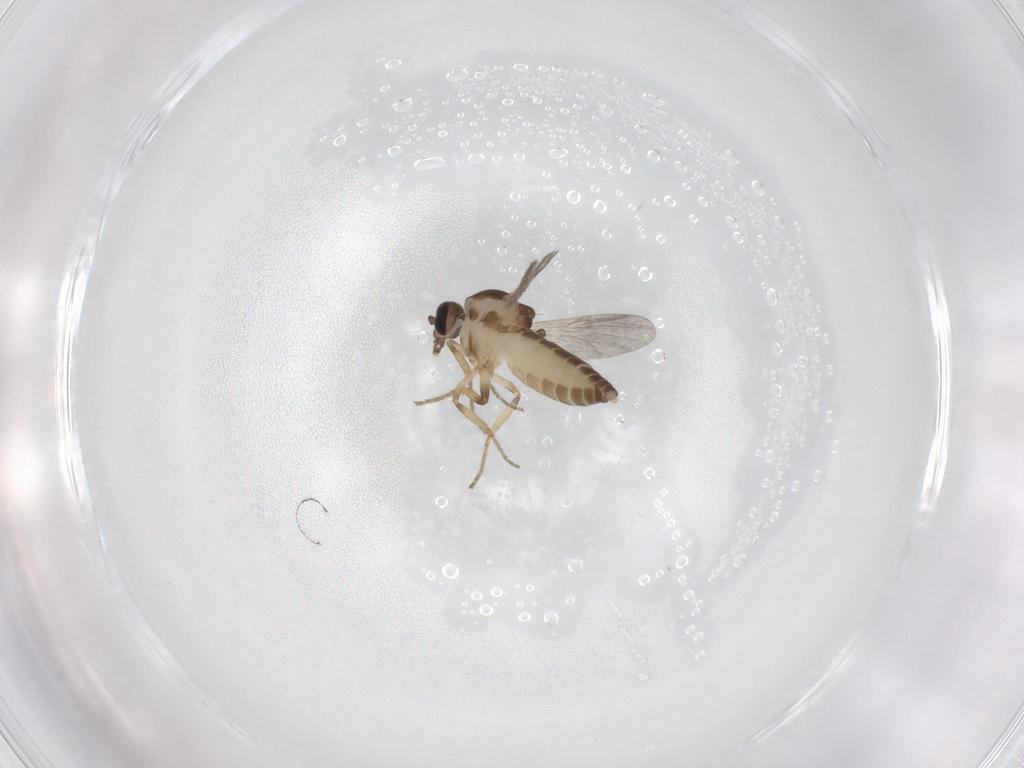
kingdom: Animalia
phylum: Arthropoda
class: Insecta
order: Diptera
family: Ceratopogonidae
